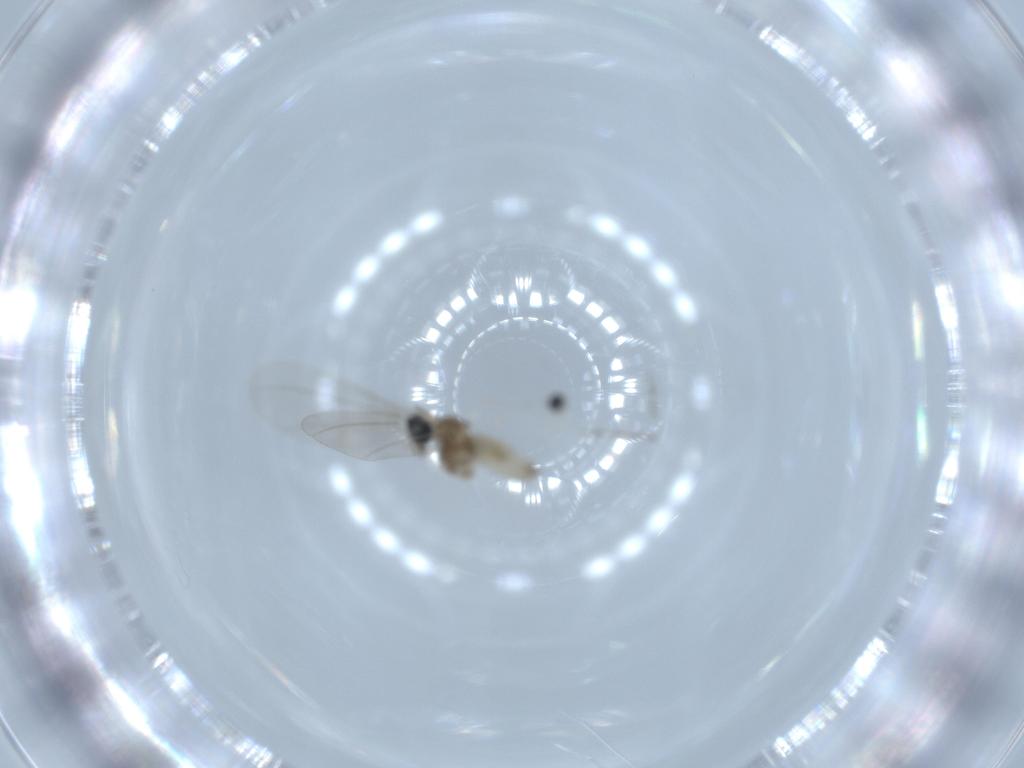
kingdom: Animalia
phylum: Arthropoda
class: Insecta
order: Diptera
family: Cecidomyiidae
